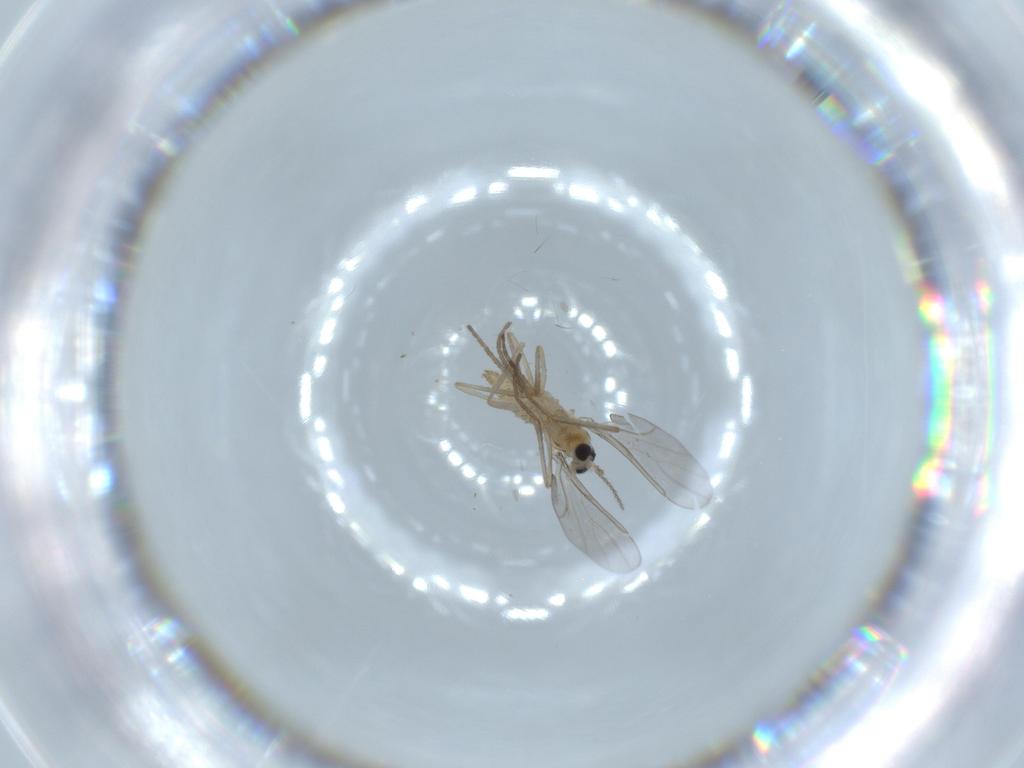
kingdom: Animalia
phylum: Arthropoda
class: Insecta
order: Diptera
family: Cecidomyiidae
